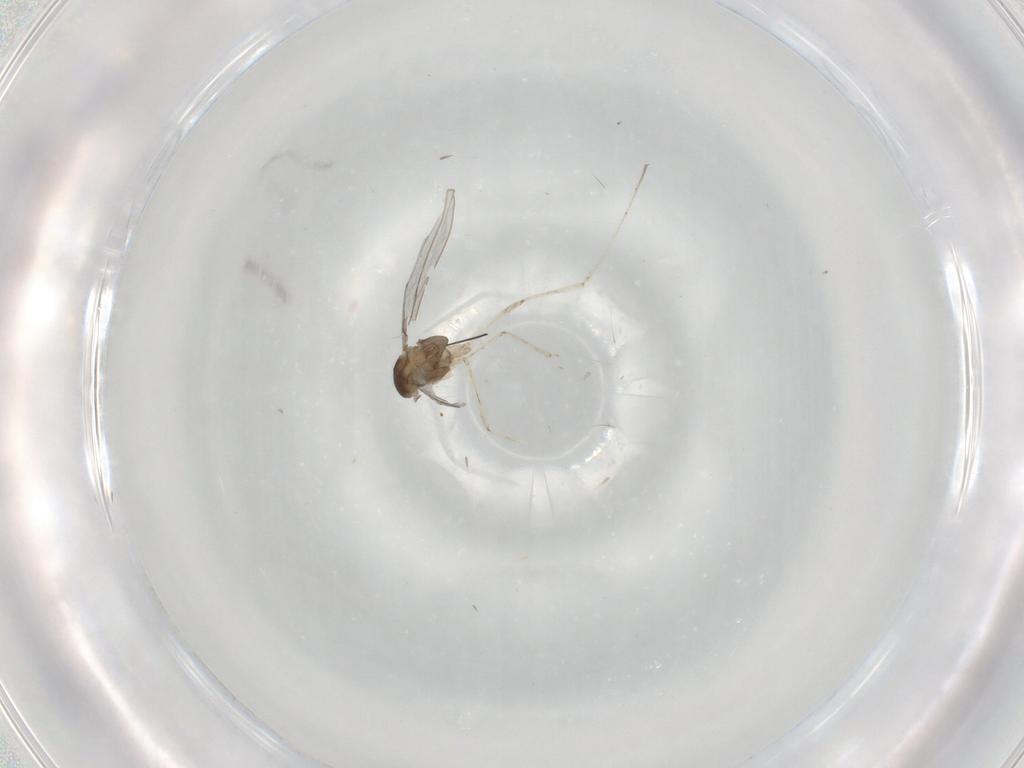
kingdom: Animalia
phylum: Arthropoda
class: Insecta
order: Diptera
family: Cecidomyiidae
